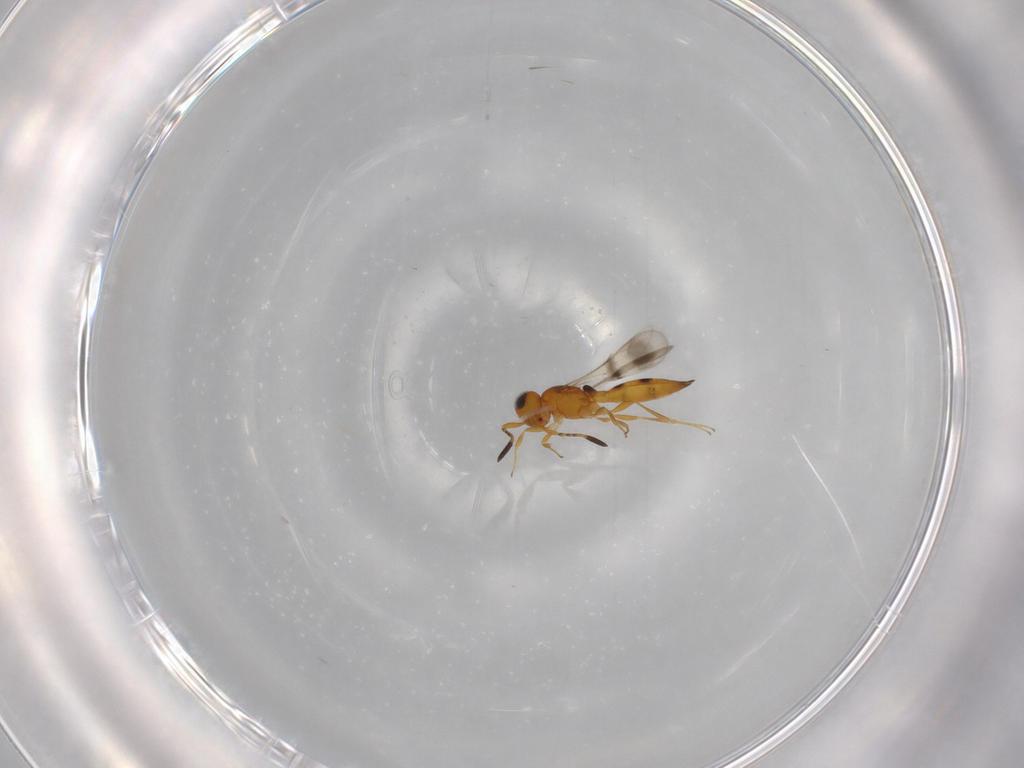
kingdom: Animalia
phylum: Arthropoda
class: Insecta
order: Hymenoptera
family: Scelionidae
